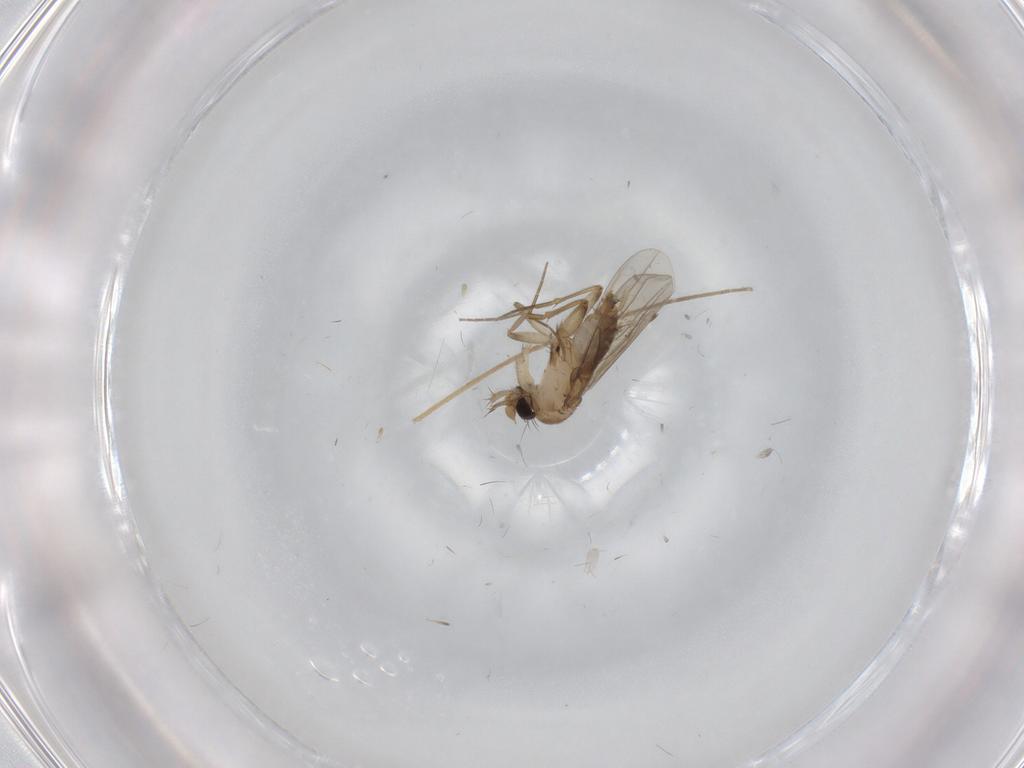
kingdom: Animalia
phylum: Arthropoda
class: Insecta
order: Diptera
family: Phoridae
